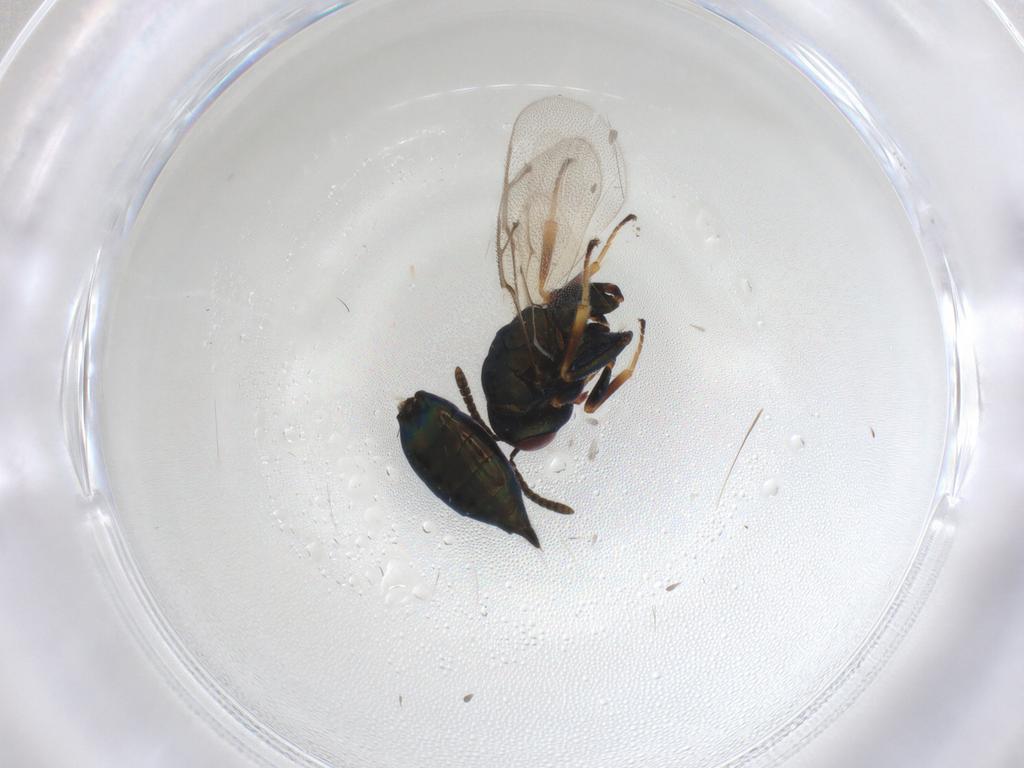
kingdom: Animalia
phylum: Arthropoda
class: Insecta
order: Hymenoptera
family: Pteromalidae
